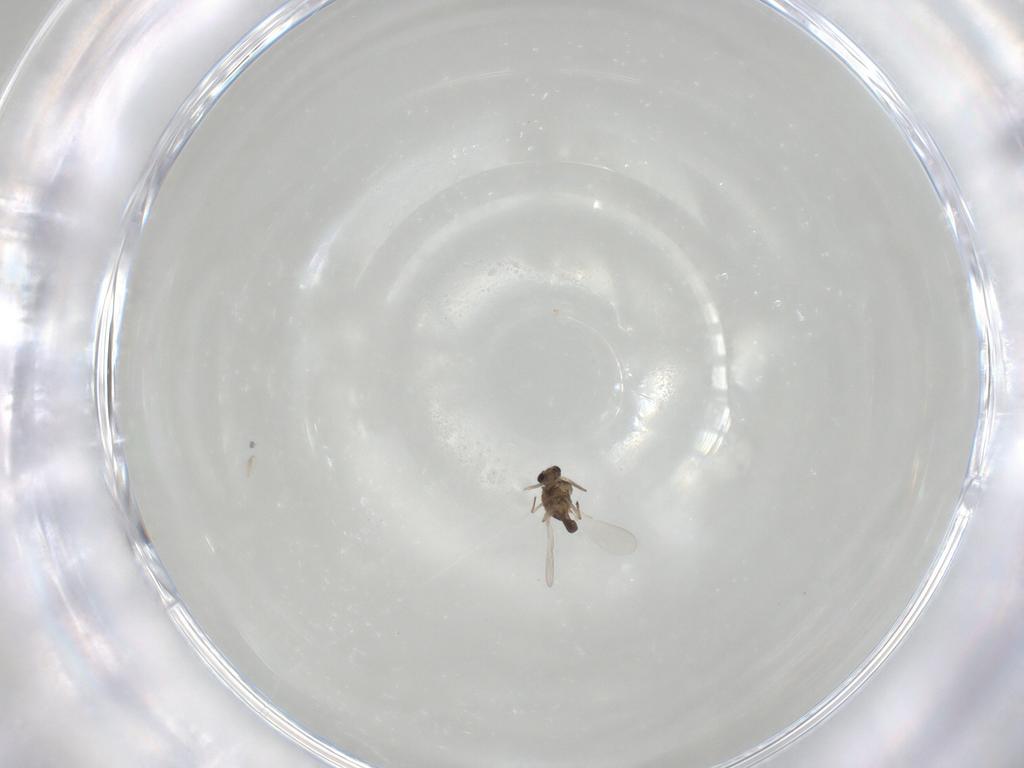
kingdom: Animalia
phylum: Arthropoda
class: Insecta
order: Diptera
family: Chironomidae
